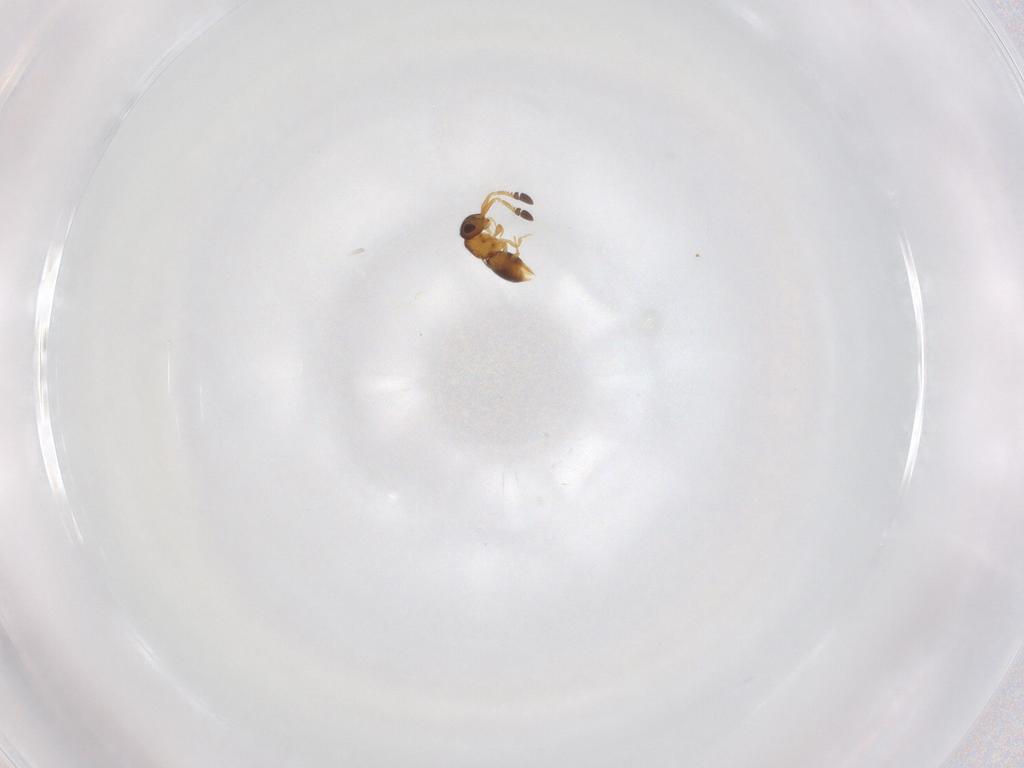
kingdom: Animalia
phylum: Arthropoda
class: Insecta
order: Hymenoptera
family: Ceraphronidae
